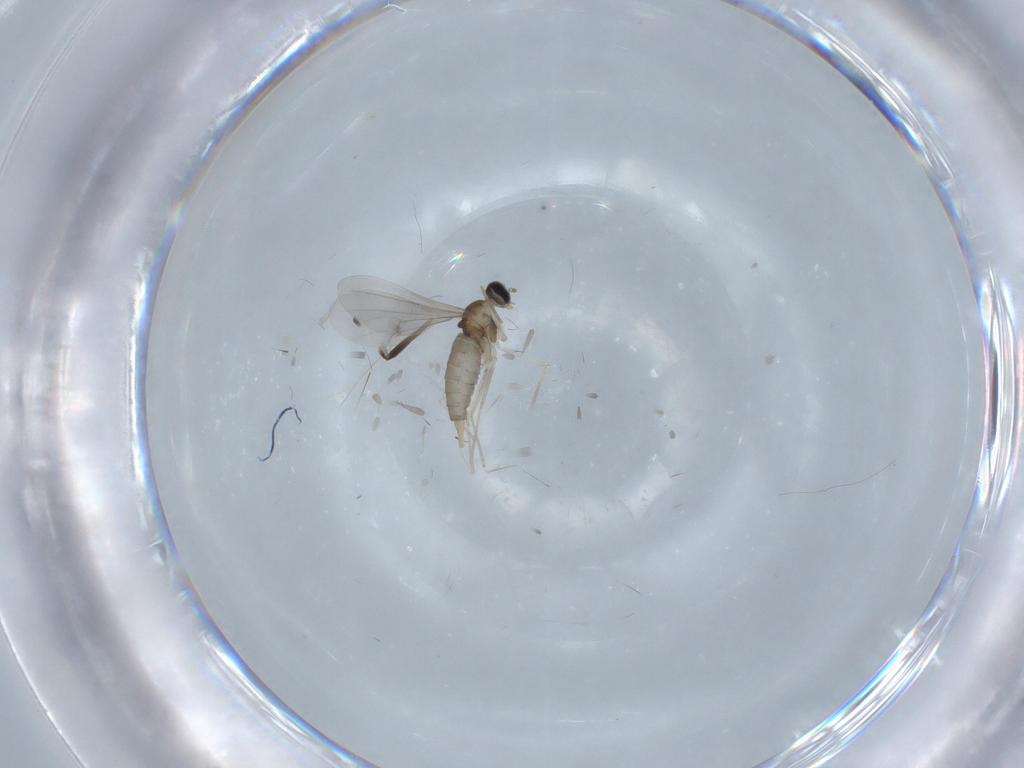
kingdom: Animalia
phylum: Arthropoda
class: Insecta
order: Diptera
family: Cecidomyiidae
